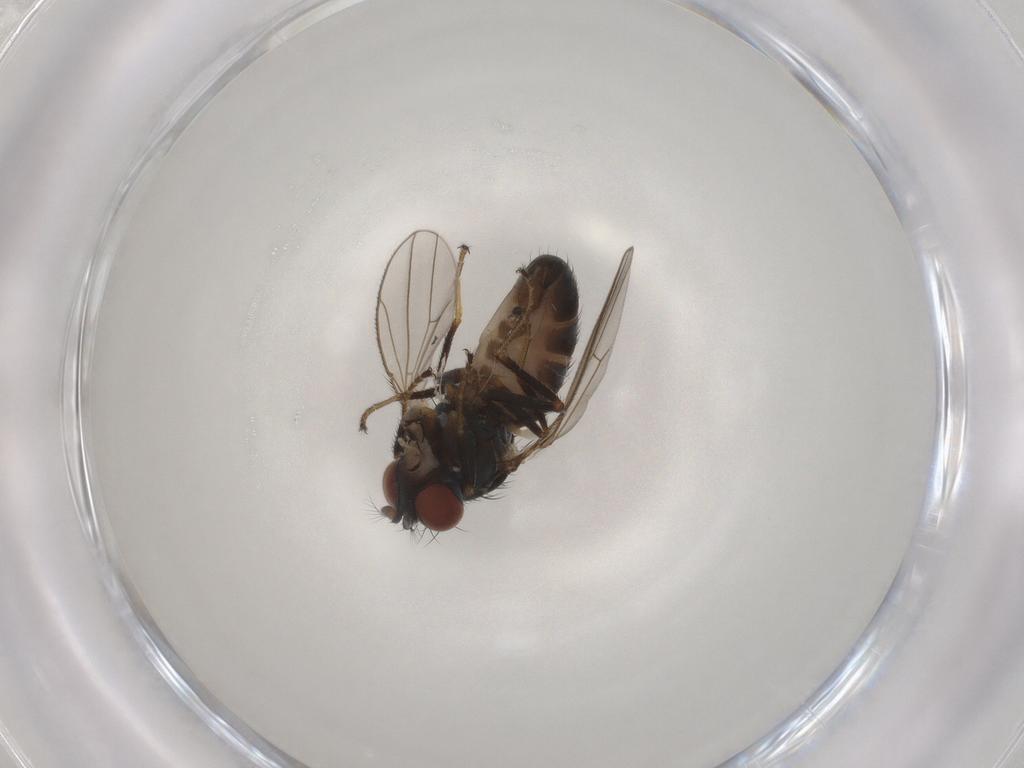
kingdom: Animalia
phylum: Arthropoda
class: Insecta
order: Diptera
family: Ephydridae
